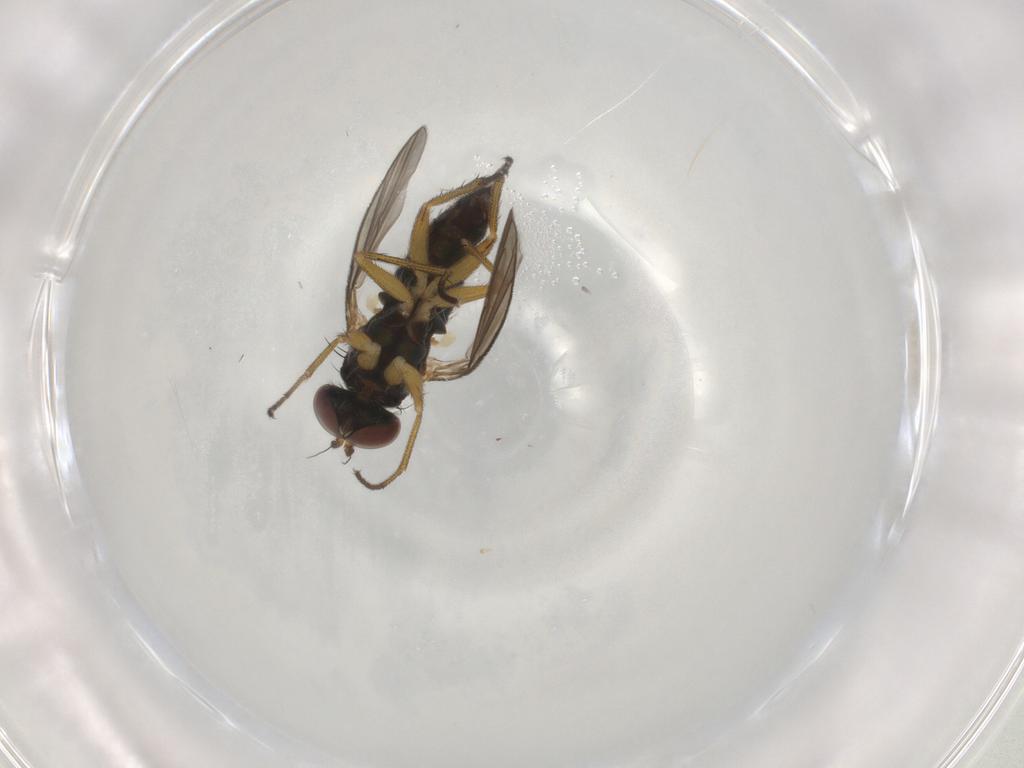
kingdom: Animalia
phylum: Arthropoda
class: Insecta
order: Diptera
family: Dolichopodidae
